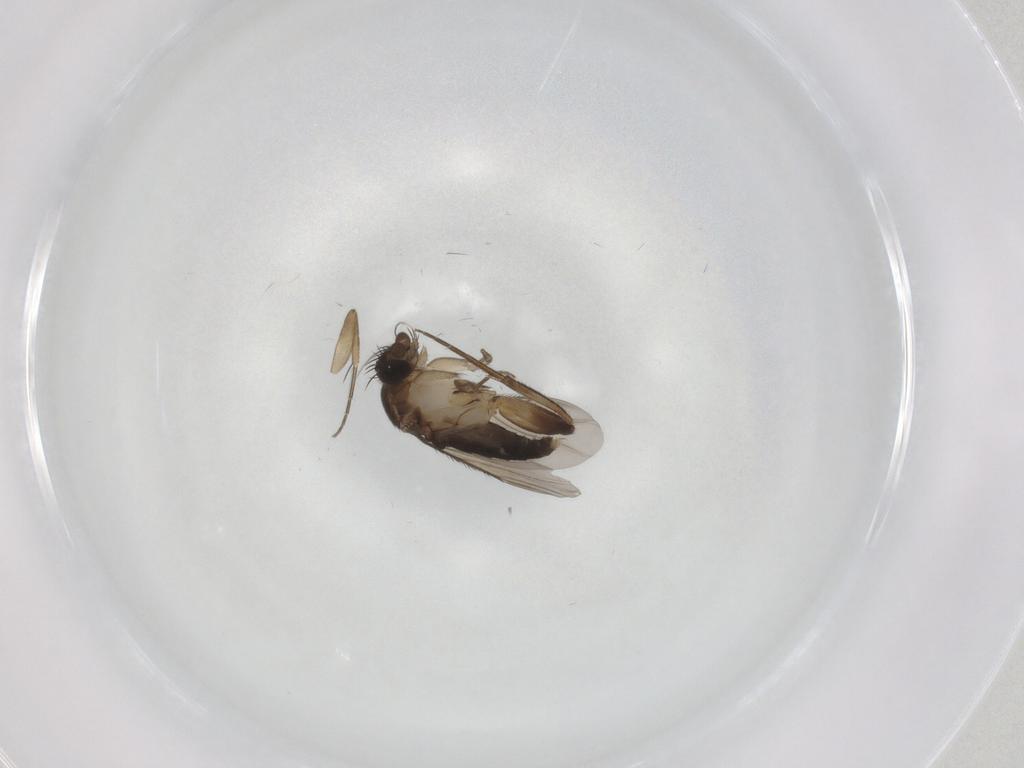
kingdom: Animalia
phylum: Arthropoda
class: Insecta
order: Diptera
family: Phoridae
